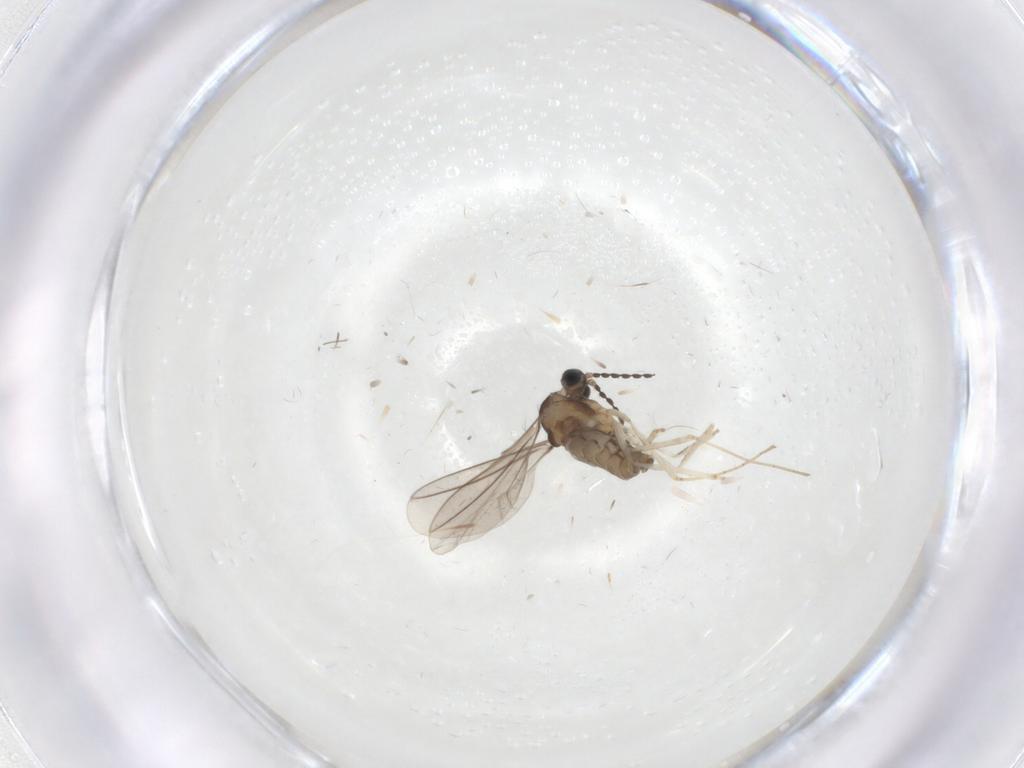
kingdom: Animalia
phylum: Arthropoda
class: Insecta
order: Diptera
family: Cecidomyiidae
